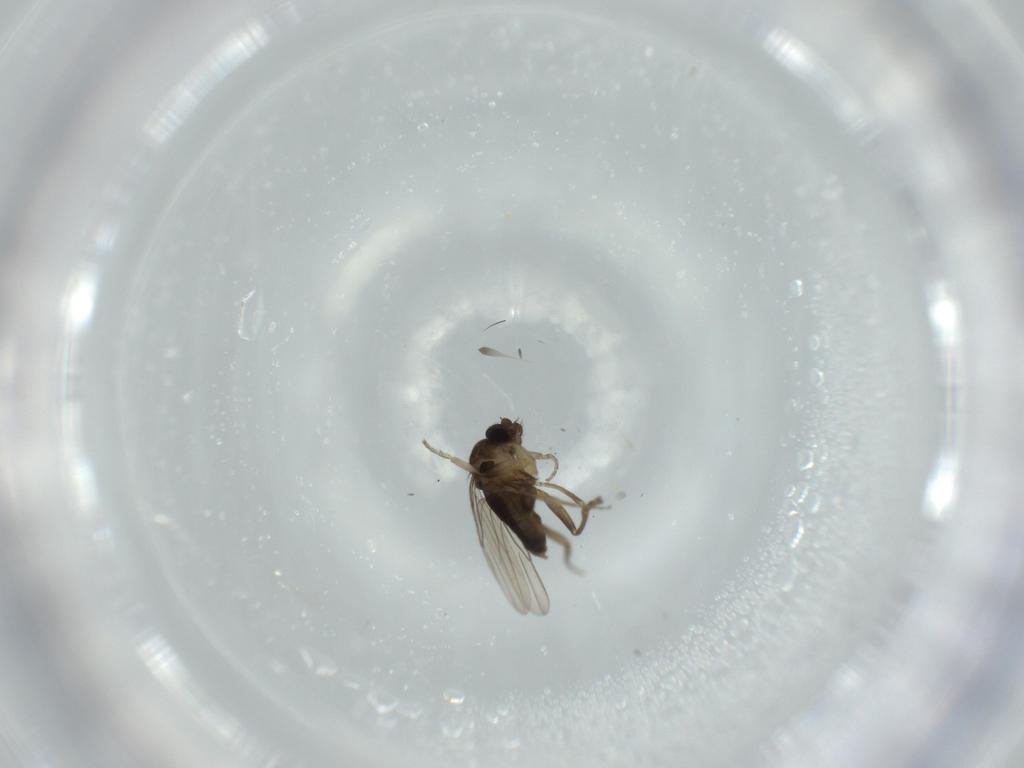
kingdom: Animalia
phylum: Arthropoda
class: Insecta
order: Diptera
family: Phoridae
